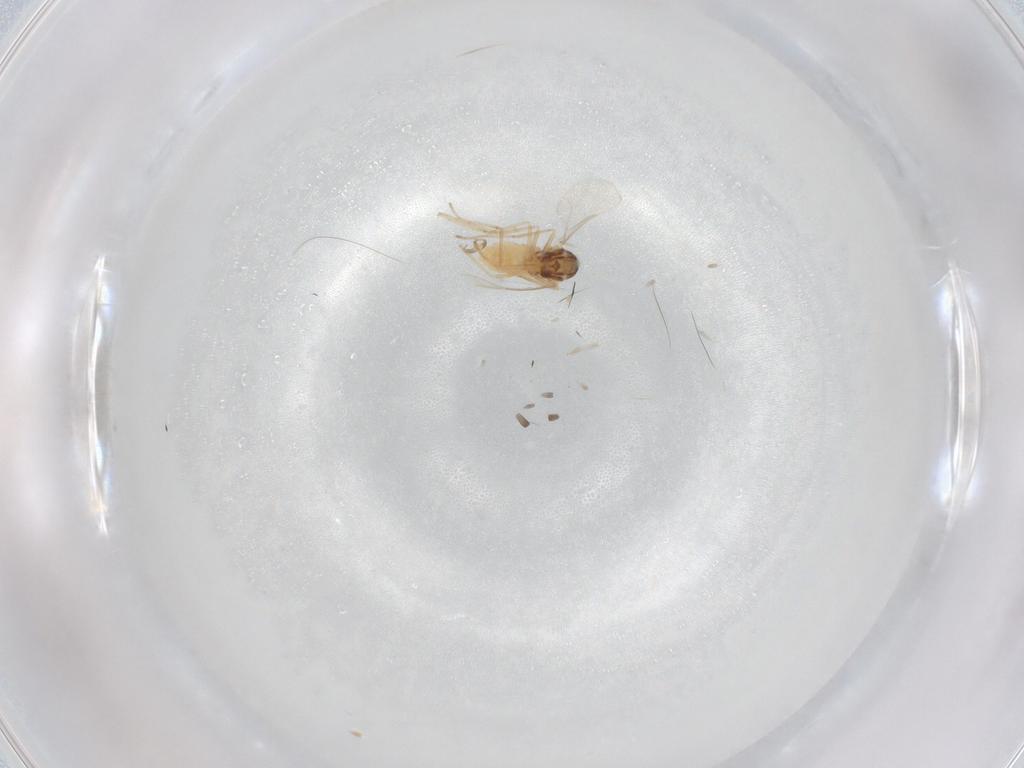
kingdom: Animalia
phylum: Arthropoda
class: Insecta
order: Diptera
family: Cecidomyiidae
